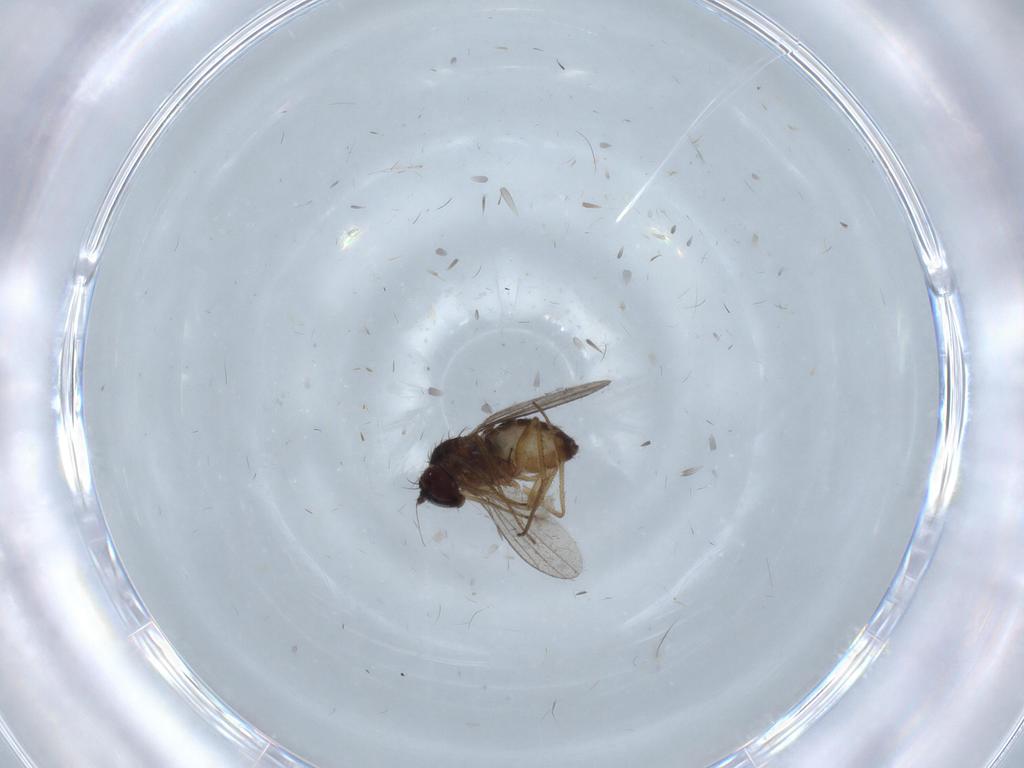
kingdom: Animalia
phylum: Arthropoda
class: Insecta
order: Diptera
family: Dolichopodidae
